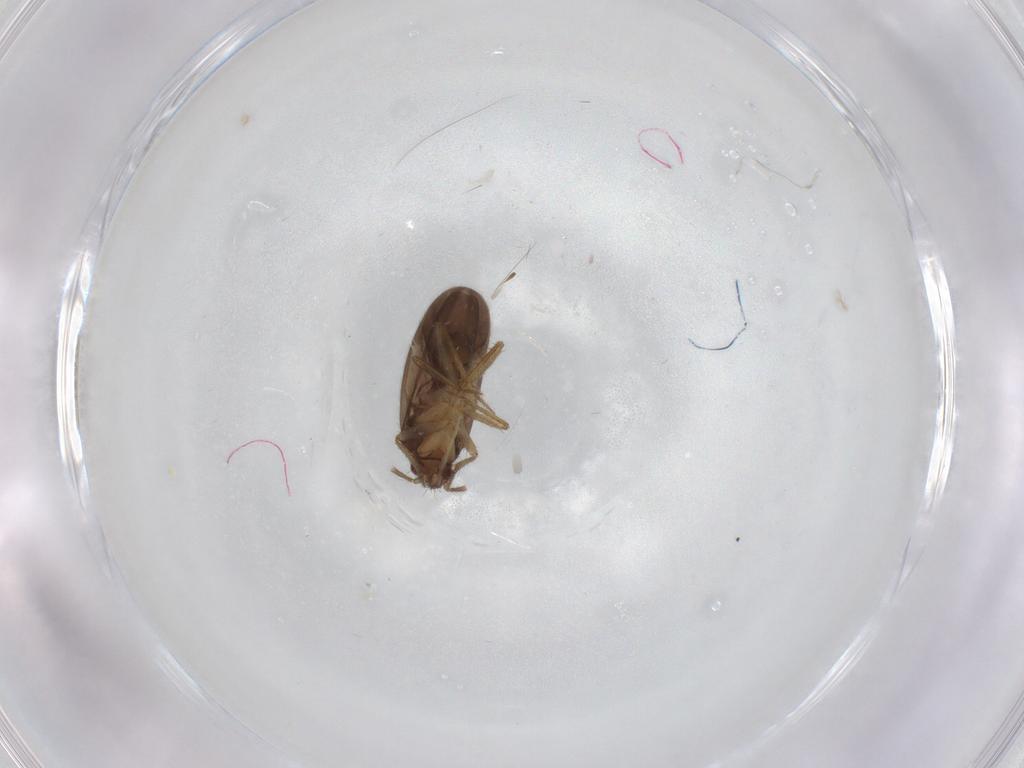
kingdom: Animalia
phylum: Arthropoda
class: Insecta
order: Hemiptera
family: Ceratocombidae
